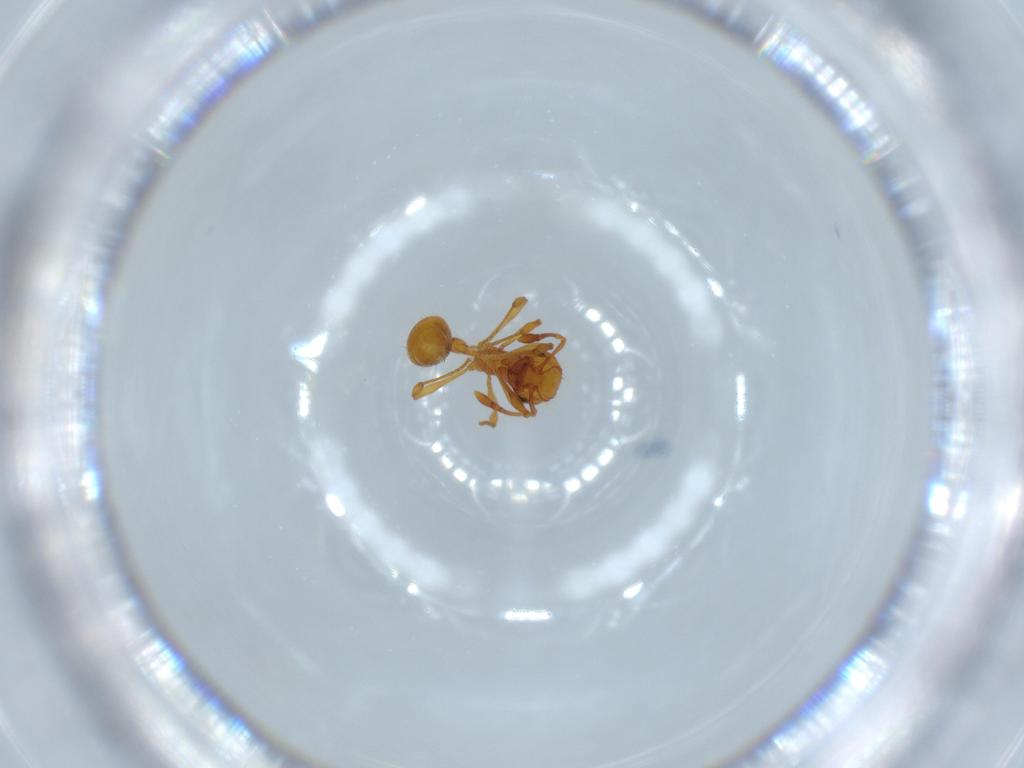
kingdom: Animalia
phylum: Arthropoda
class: Insecta
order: Hymenoptera
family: Formicidae
